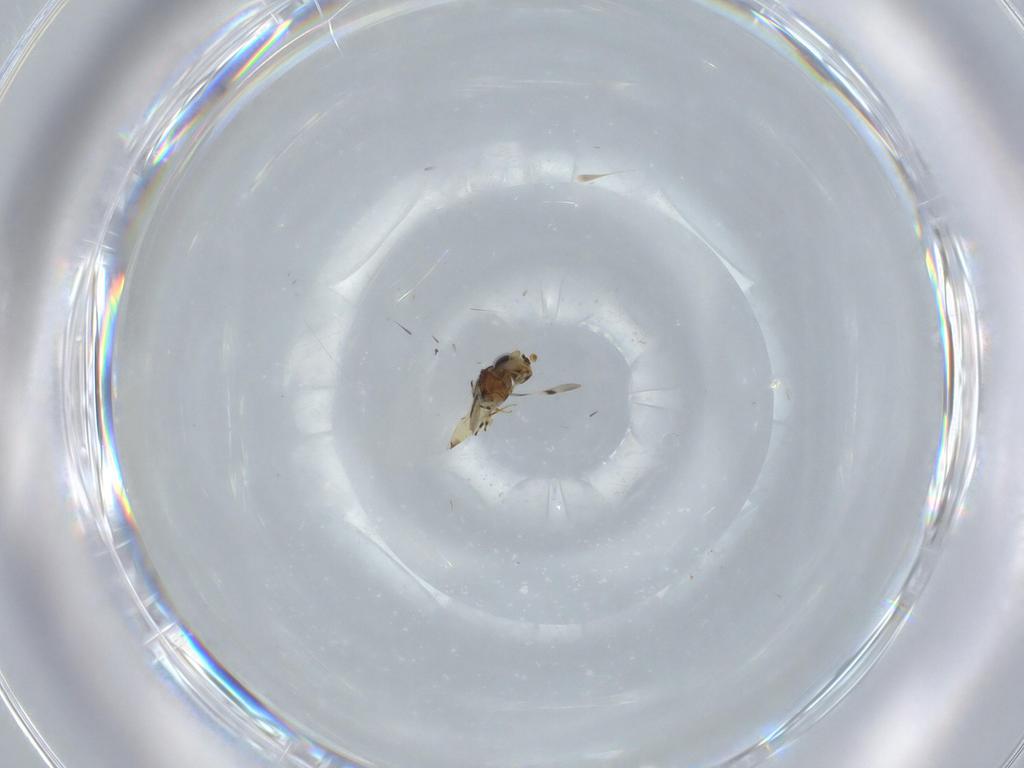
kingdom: Animalia
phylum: Arthropoda
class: Insecta
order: Hymenoptera
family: Scelionidae
